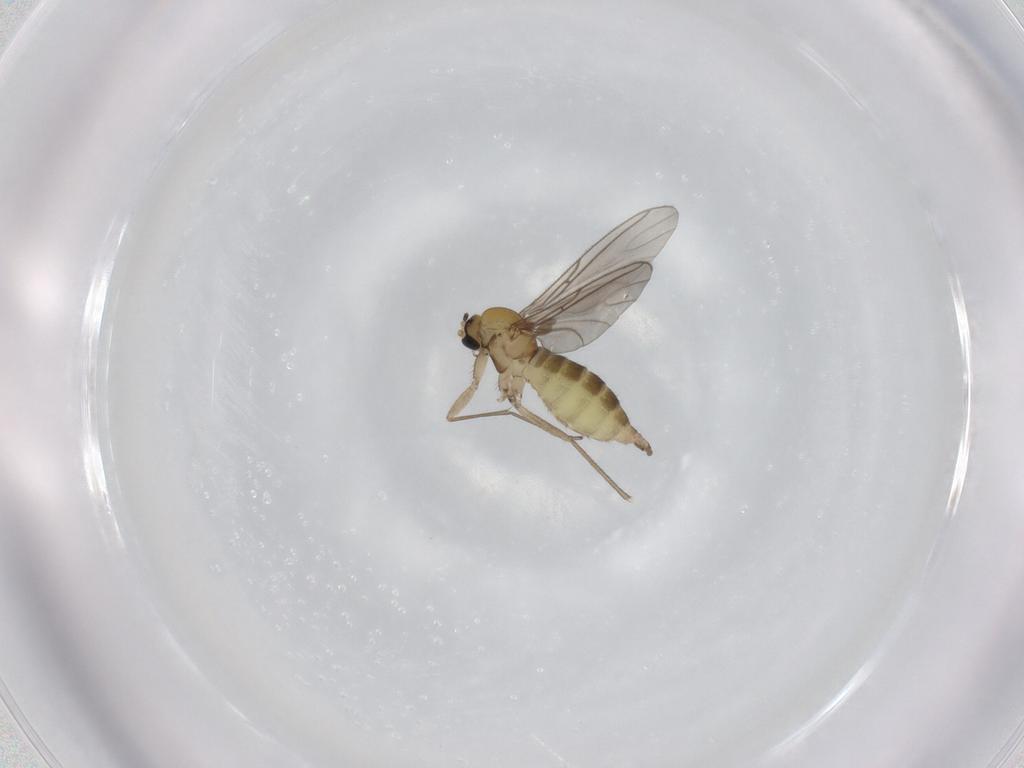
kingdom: Animalia
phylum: Arthropoda
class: Insecta
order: Diptera
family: Sciaridae
